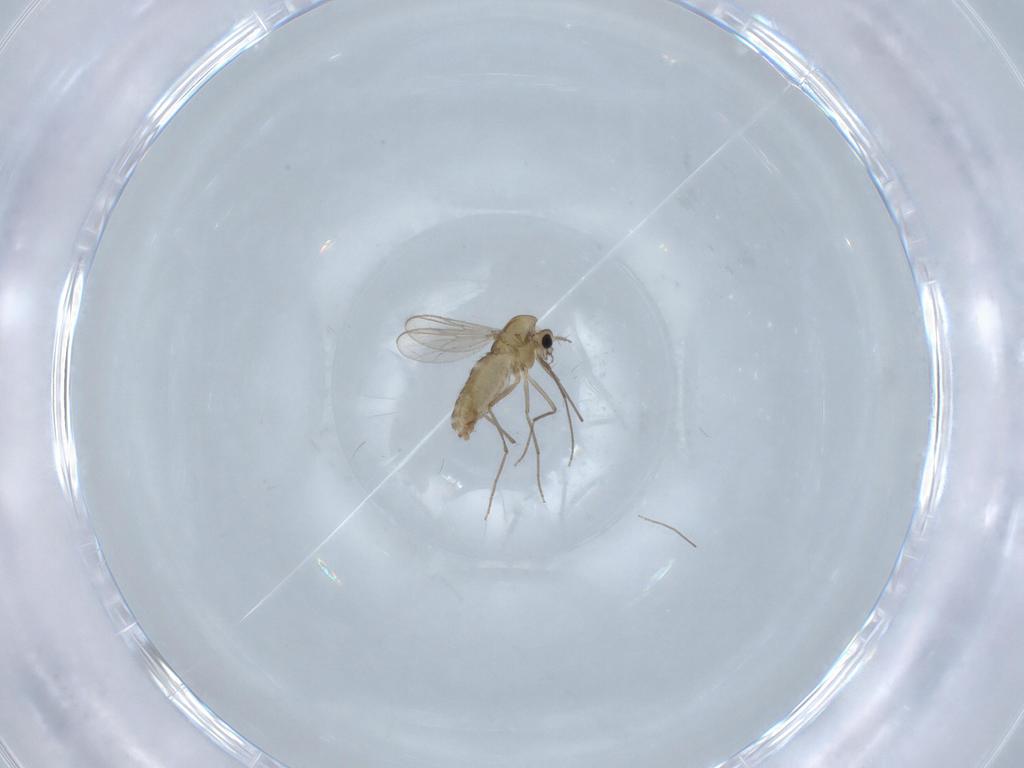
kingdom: Animalia
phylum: Arthropoda
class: Insecta
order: Diptera
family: Chironomidae
